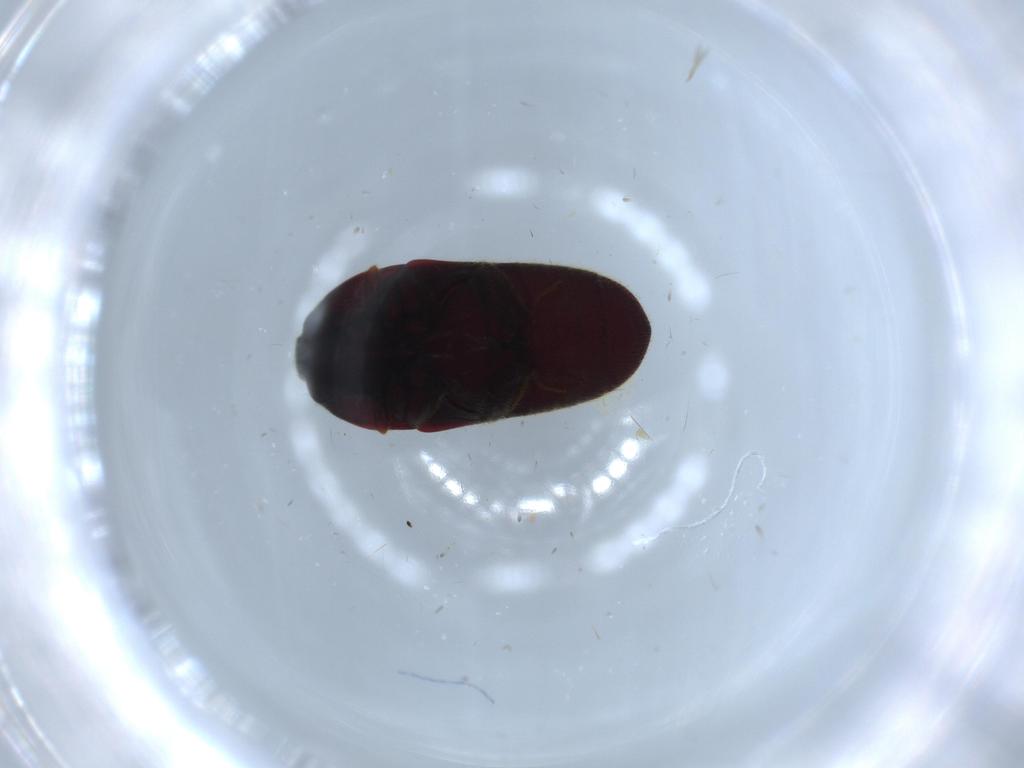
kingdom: Animalia
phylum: Arthropoda
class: Insecta
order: Coleoptera
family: Throscidae
